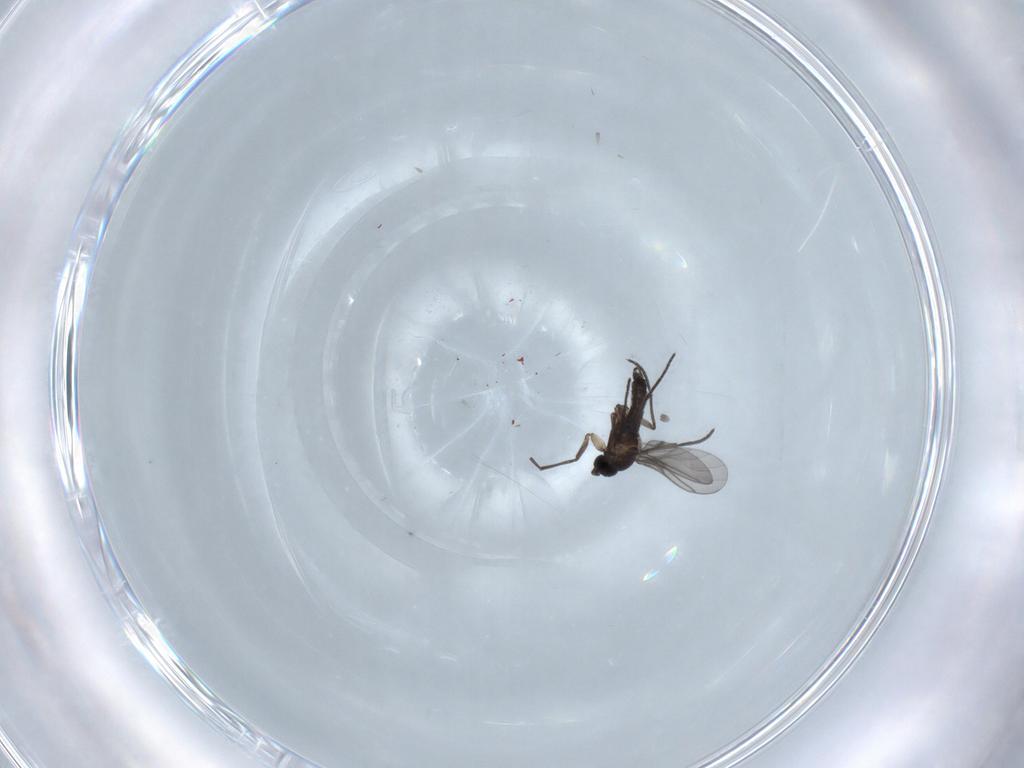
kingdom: Animalia
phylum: Arthropoda
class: Insecta
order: Diptera
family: Sciaridae
